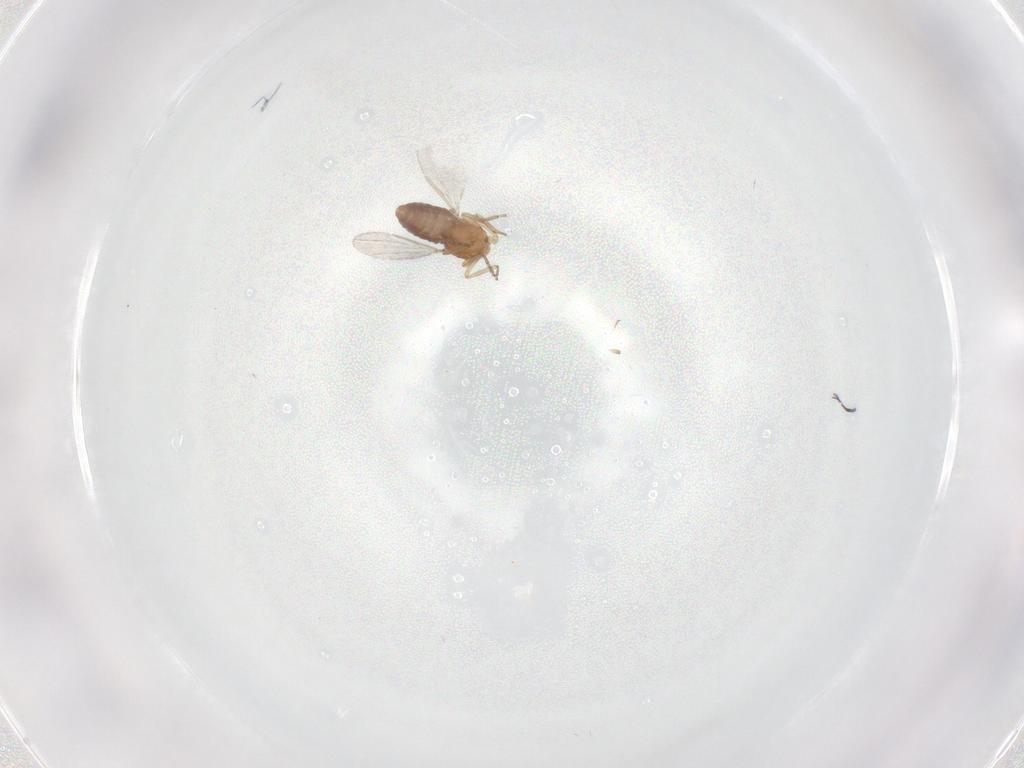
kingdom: Animalia
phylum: Arthropoda
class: Insecta
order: Diptera
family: Ceratopogonidae
